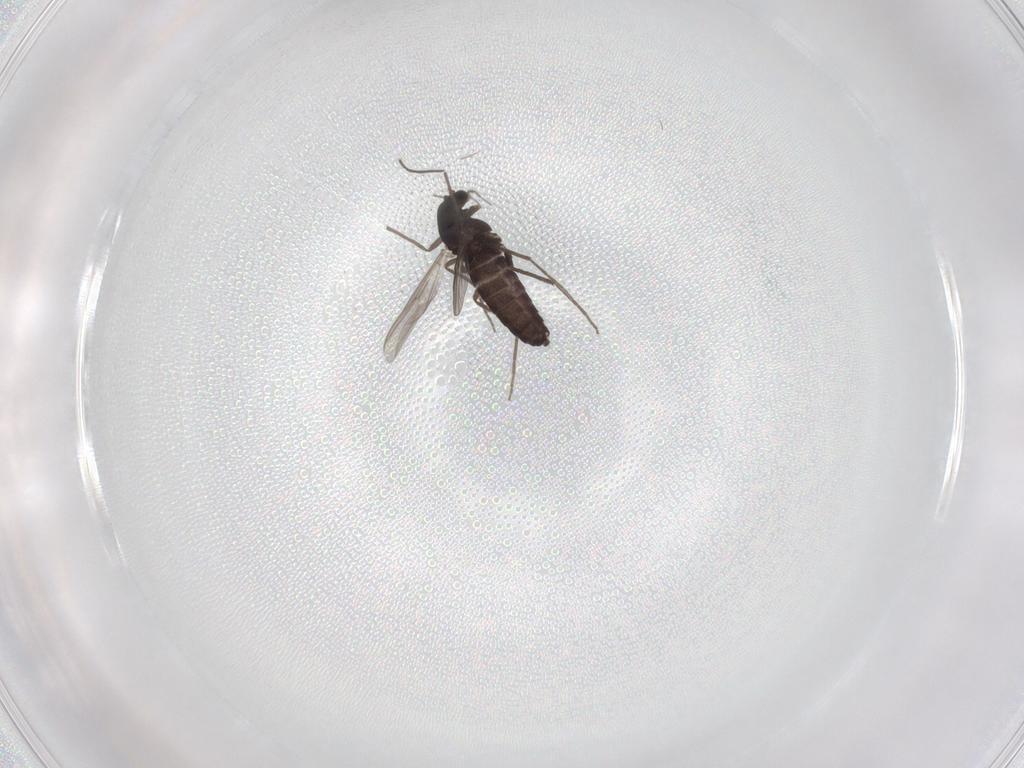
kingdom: Animalia
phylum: Arthropoda
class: Insecta
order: Diptera
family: Chironomidae
